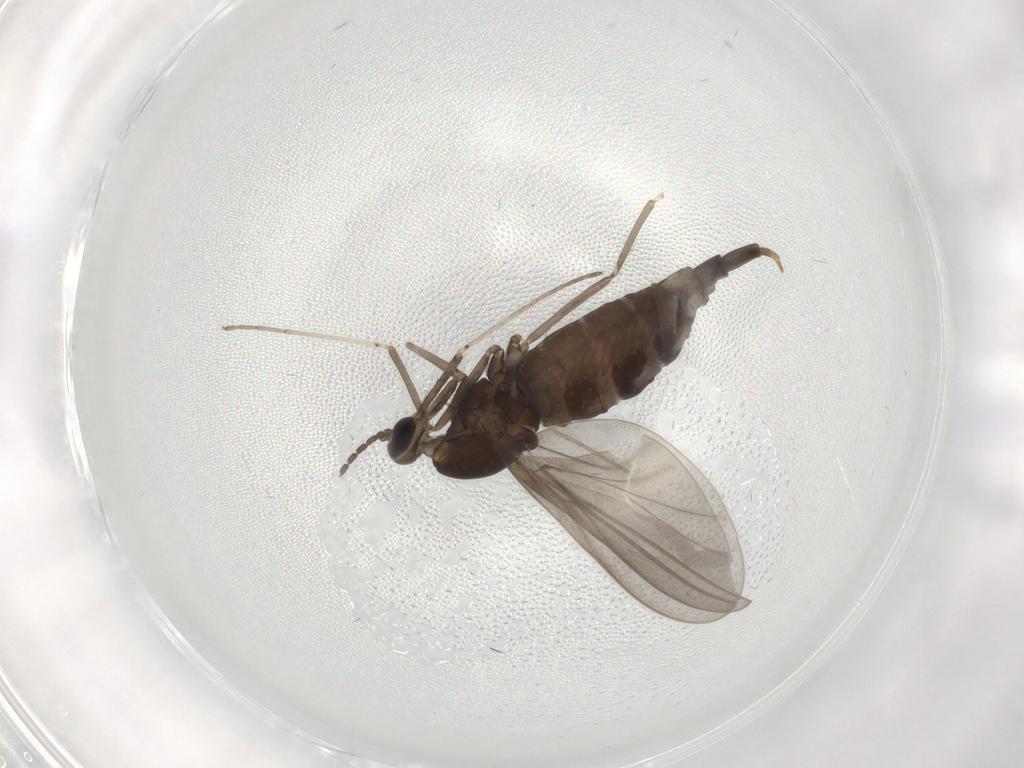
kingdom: Animalia
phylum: Arthropoda
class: Insecta
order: Diptera
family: Cecidomyiidae
